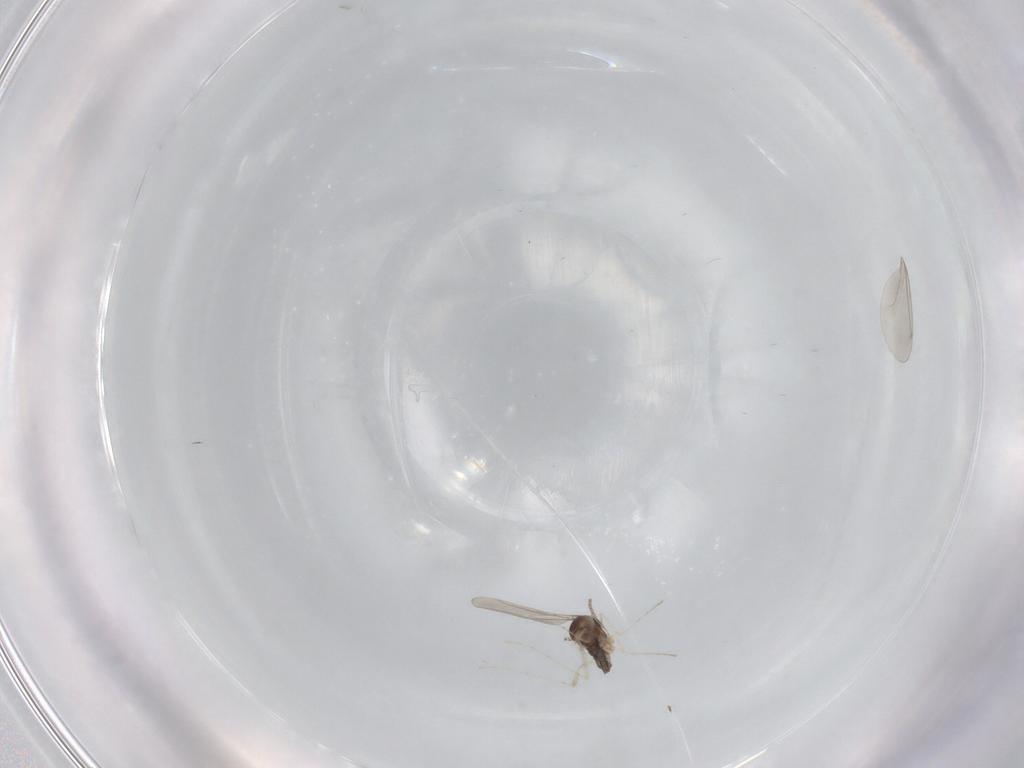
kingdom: Animalia
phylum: Arthropoda
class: Insecta
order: Diptera
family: Cecidomyiidae
